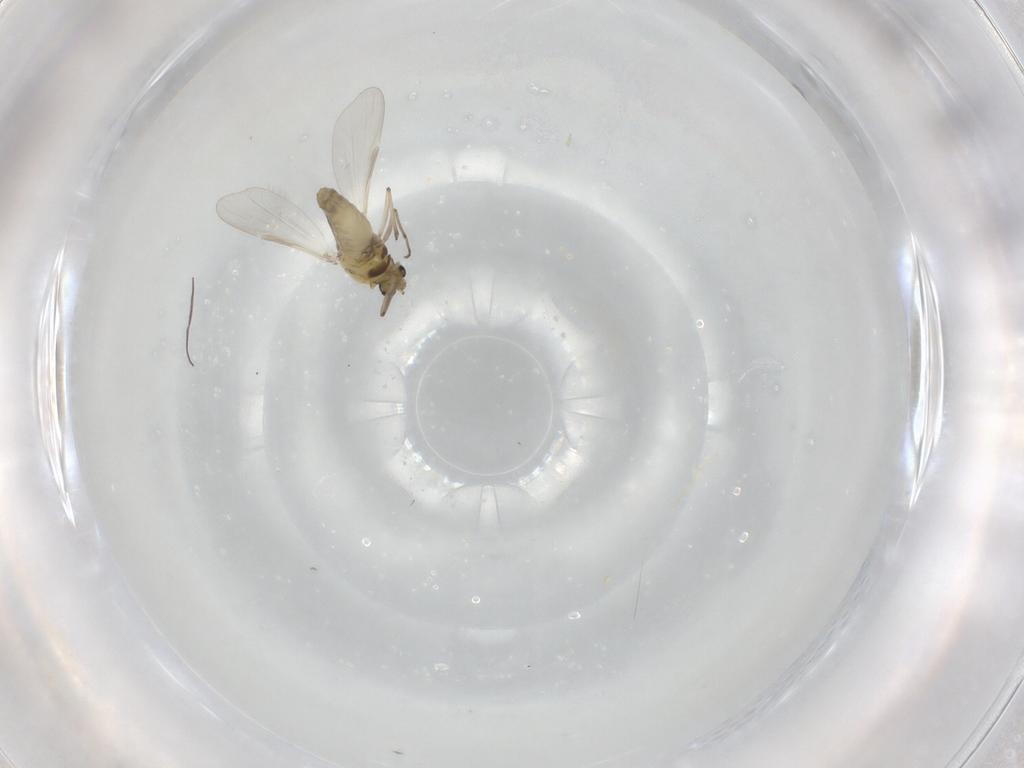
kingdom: Animalia
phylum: Arthropoda
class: Insecta
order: Diptera
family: Chironomidae
